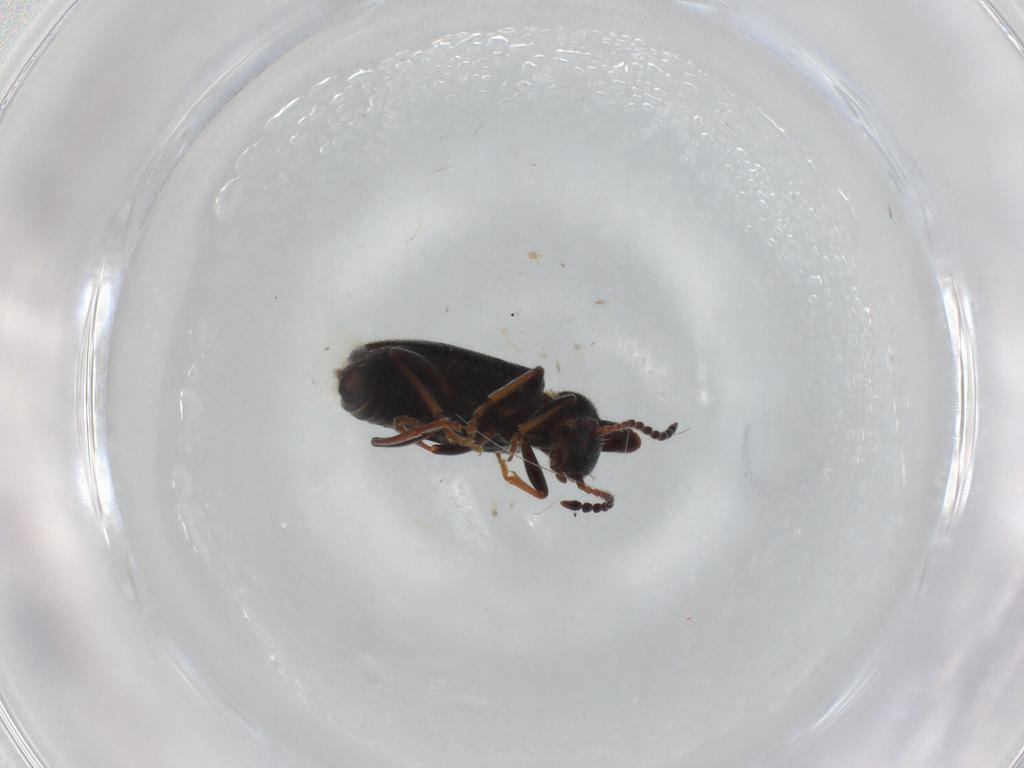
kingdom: Animalia
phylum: Arthropoda
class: Insecta
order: Coleoptera
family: Anthicidae
